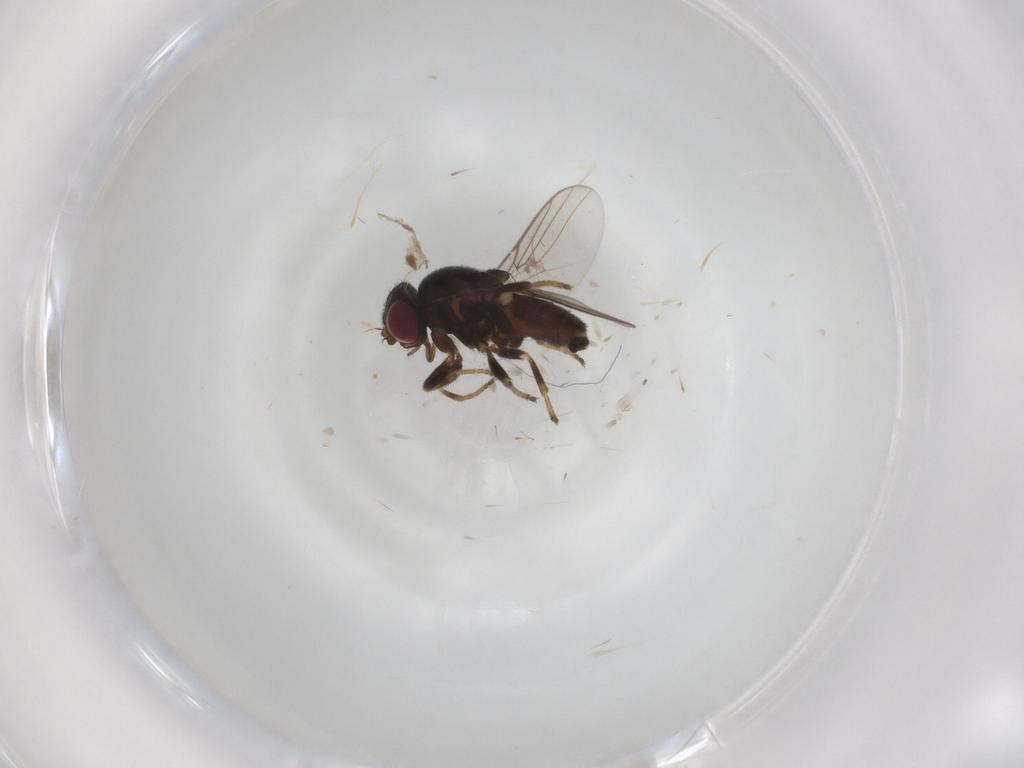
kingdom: Animalia
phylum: Arthropoda
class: Insecta
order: Diptera
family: Chloropidae
